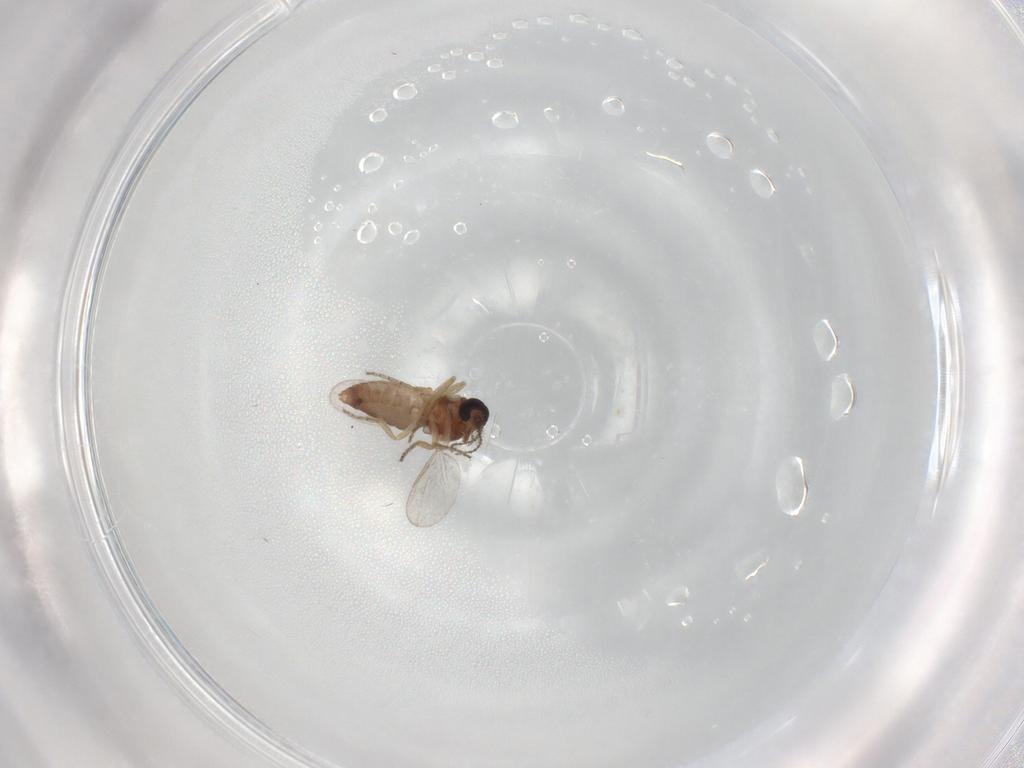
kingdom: Animalia
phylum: Arthropoda
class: Insecta
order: Diptera
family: Ceratopogonidae
